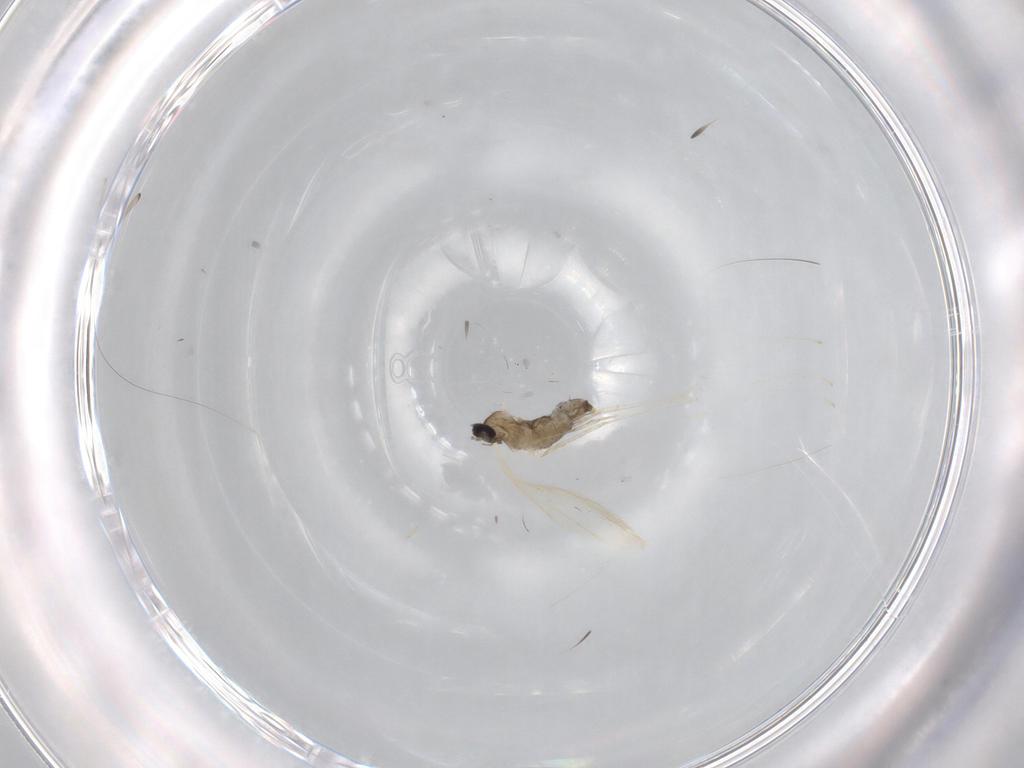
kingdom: Animalia
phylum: Arthropoda
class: Insecta
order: Diptera
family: Cecidomyiidae
